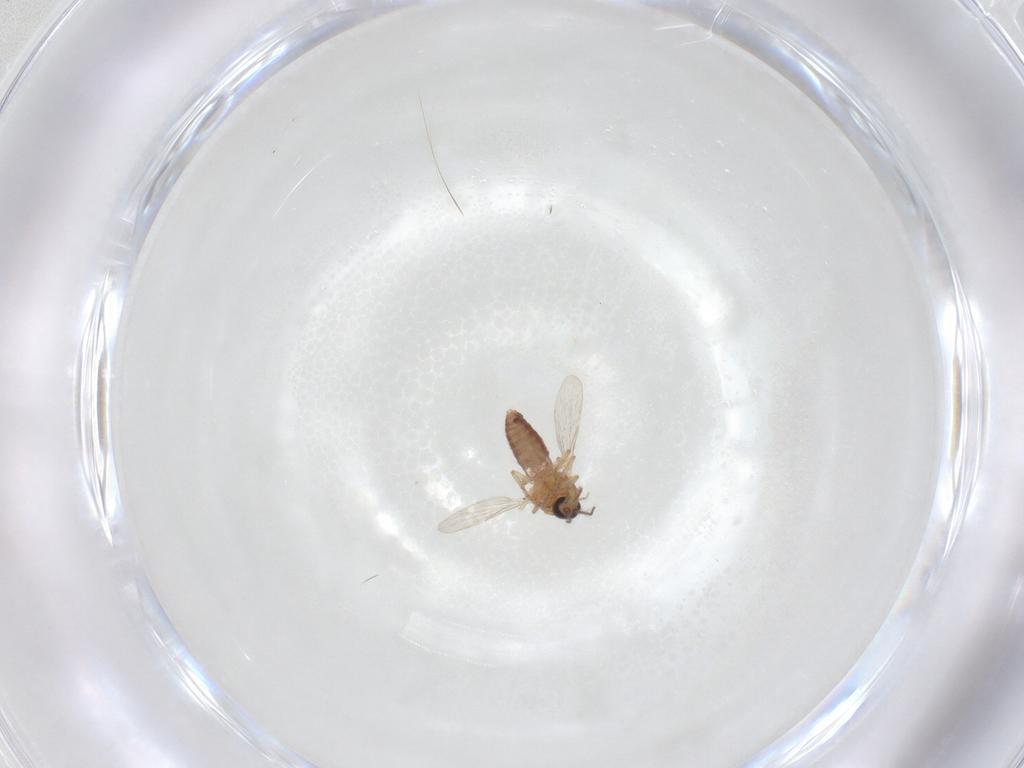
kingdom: Animalia
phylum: Arthropoda
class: Insecta
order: Diptera
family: Ceratopogonidae
